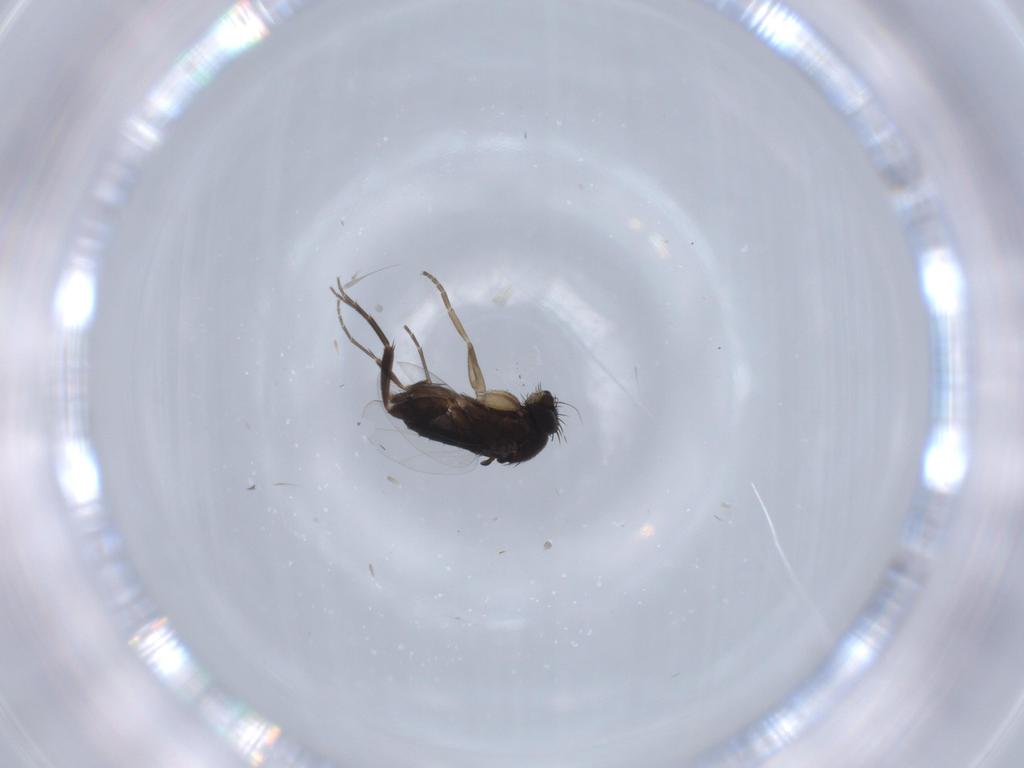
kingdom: Animalia
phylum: Arthropoda
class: Insecta
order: Diptera
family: Phoridae
